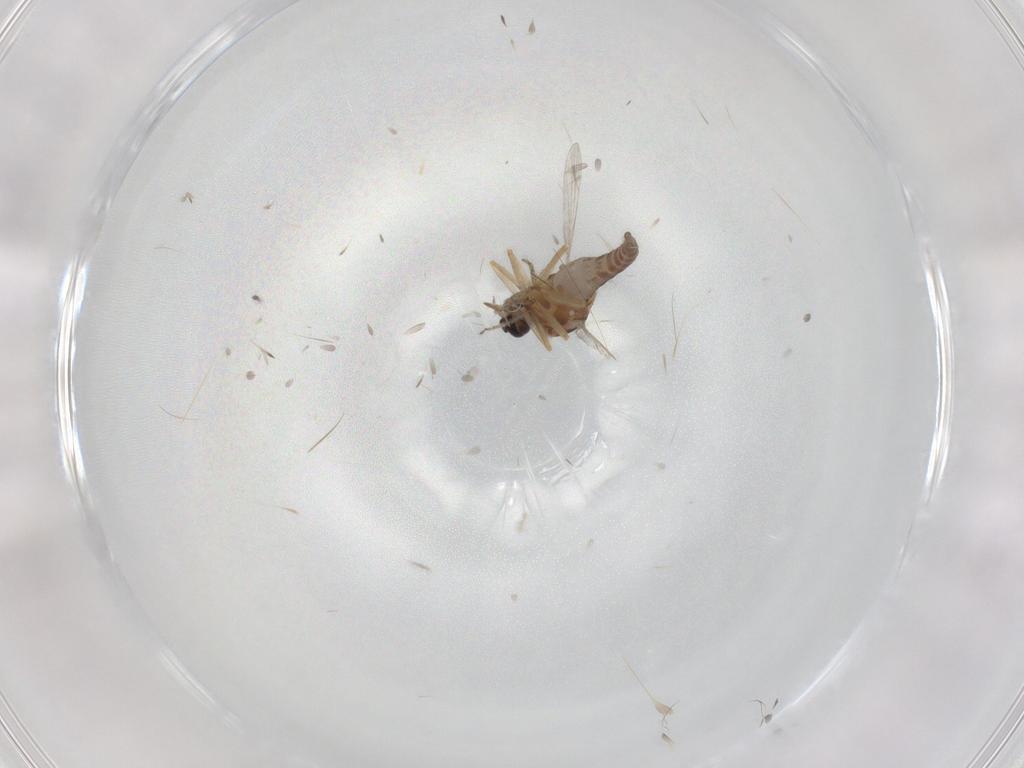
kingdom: Animalia
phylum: Arthropoda
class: Insecta
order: Diptera
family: Ceratopogonidae
